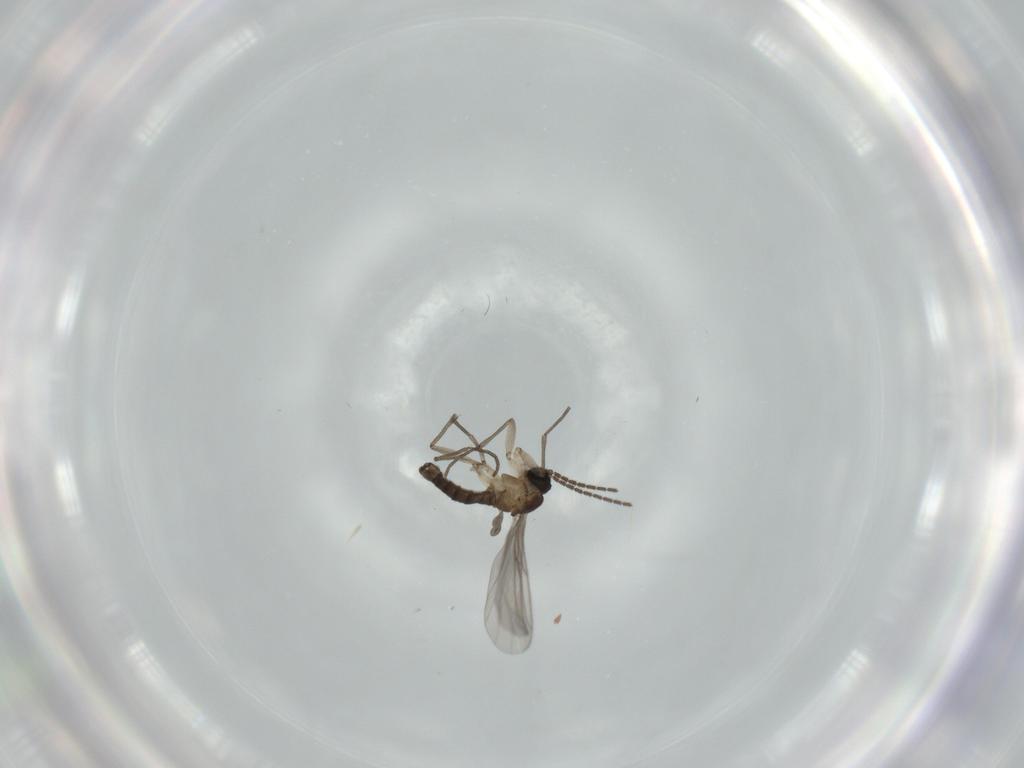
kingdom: Animalia
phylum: Arthropoda
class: Insecta
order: Diptera
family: Sciaridae
